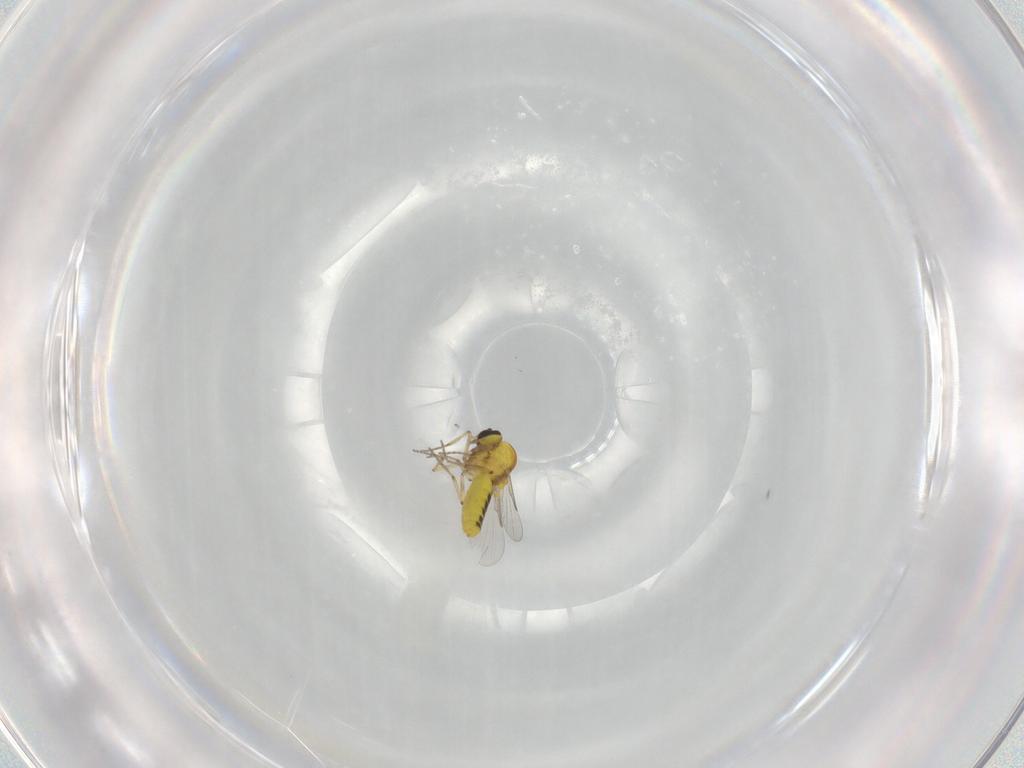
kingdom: Animalia
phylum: Arthropoda
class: Insecta
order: Diptera
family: Ceratopogonidae
